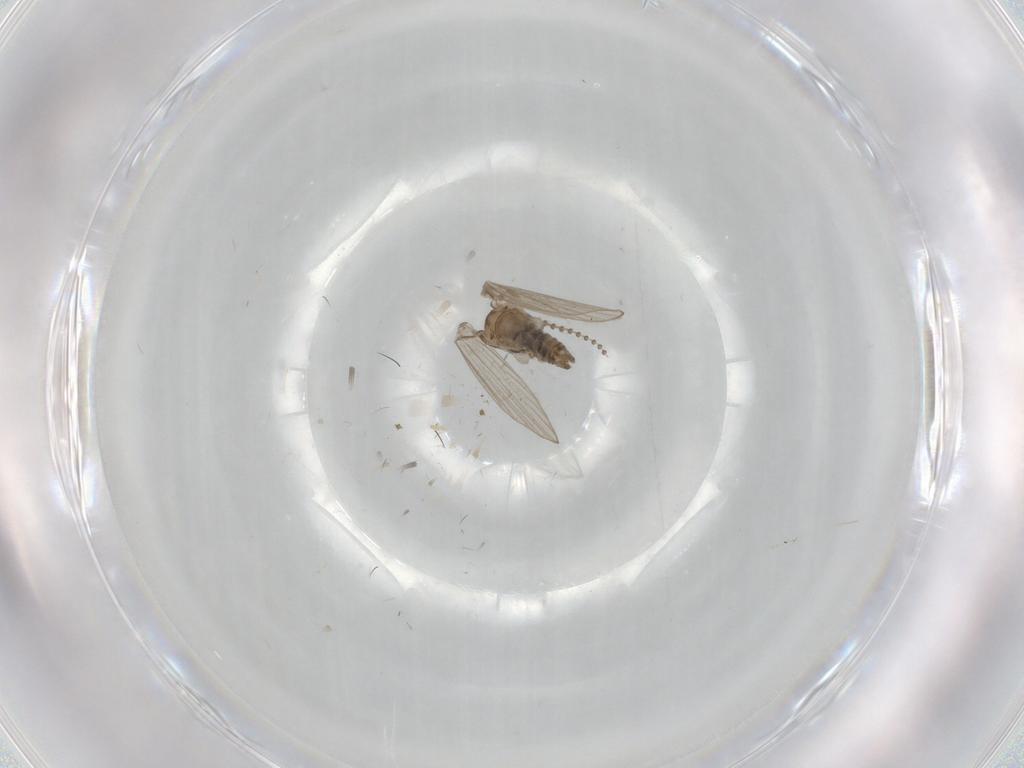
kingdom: Animalia
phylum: Arthropoda
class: Insecta
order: Diptera
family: Psychodidae
